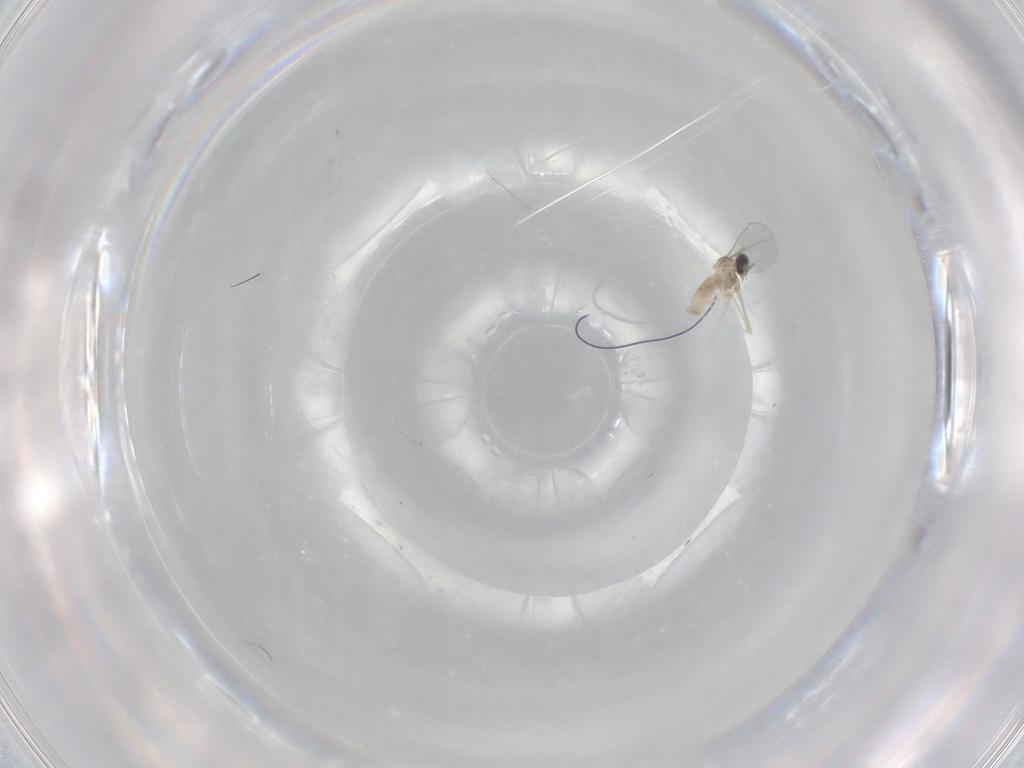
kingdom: Animalia
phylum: Arthropoda
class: Insecta
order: Diptera
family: Cecidomyiidae
